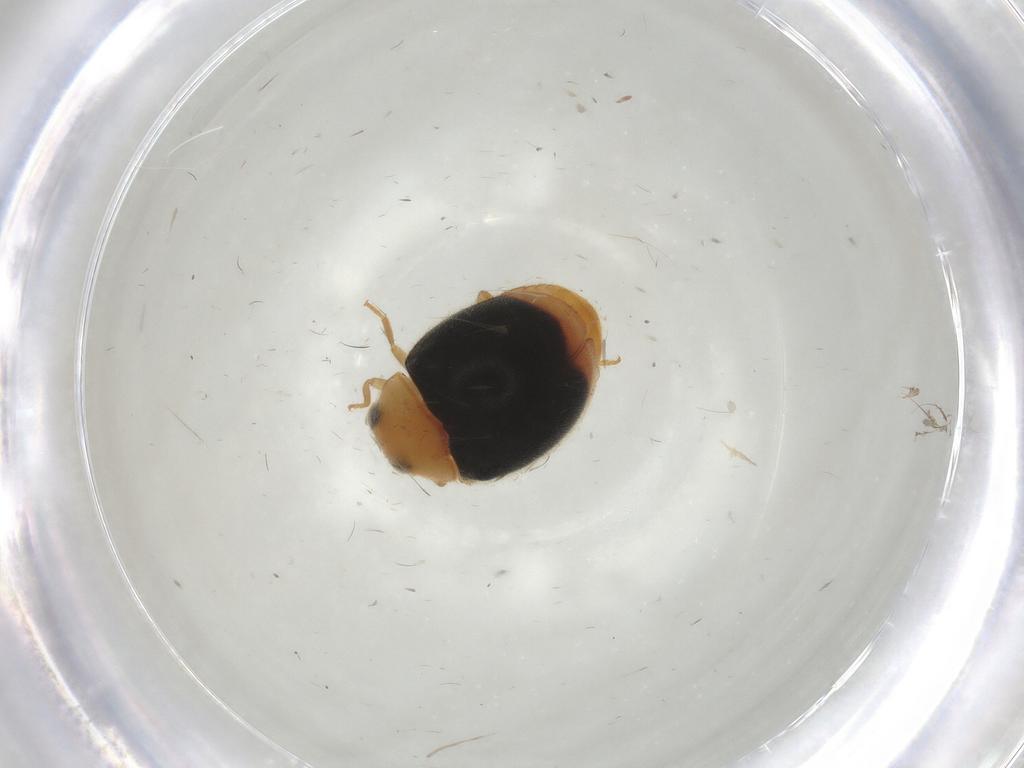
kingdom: Animalia
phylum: Arthropoda
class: Insecta
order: Coleoptera
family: Coccinellidae
